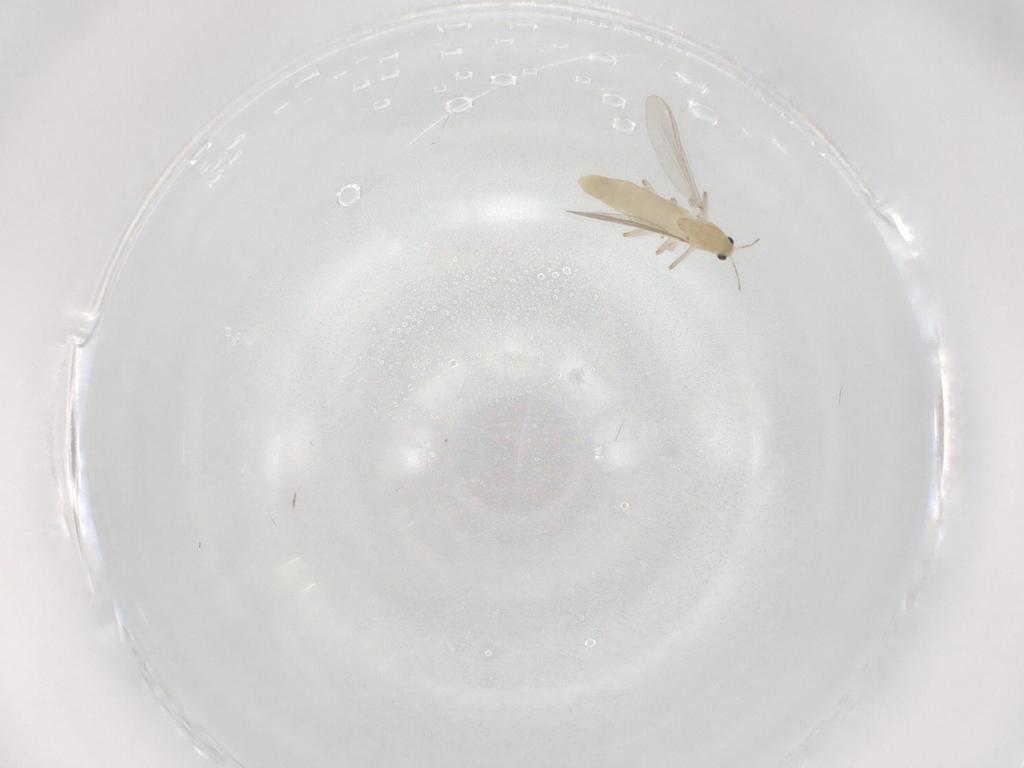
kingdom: Animalia
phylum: Arthropoda
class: Insecta
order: Diptera
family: Chironomidae
